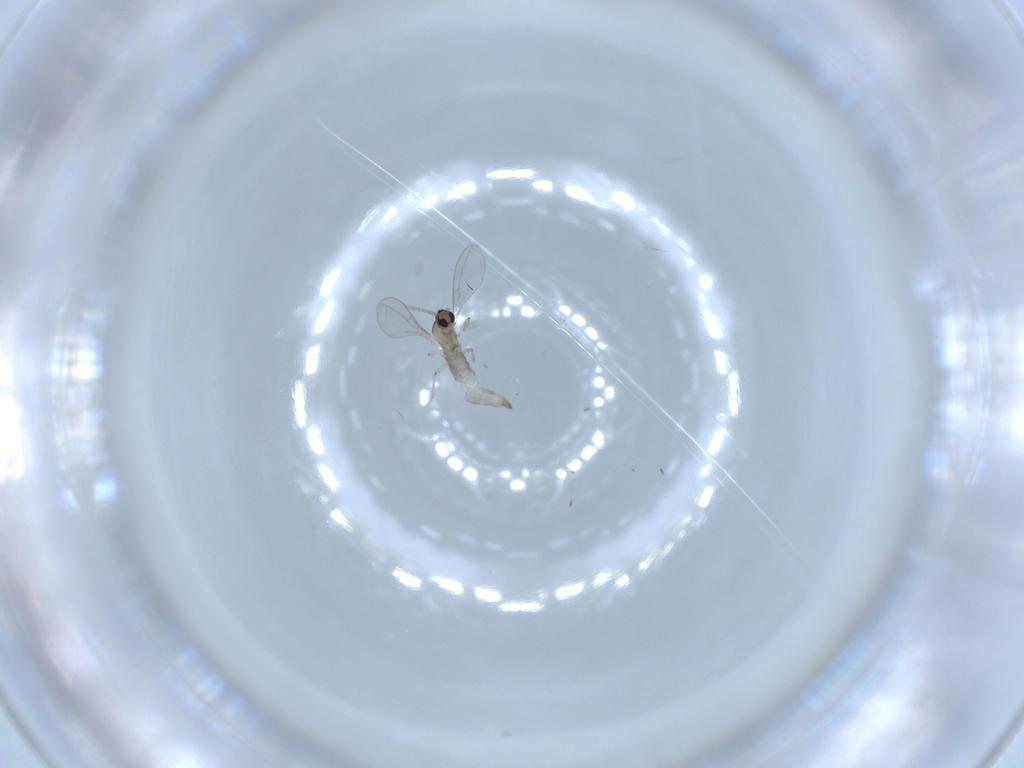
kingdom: Animalia
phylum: Arthropoda
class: Insecta
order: Diptera
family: Cecidomyiidae
